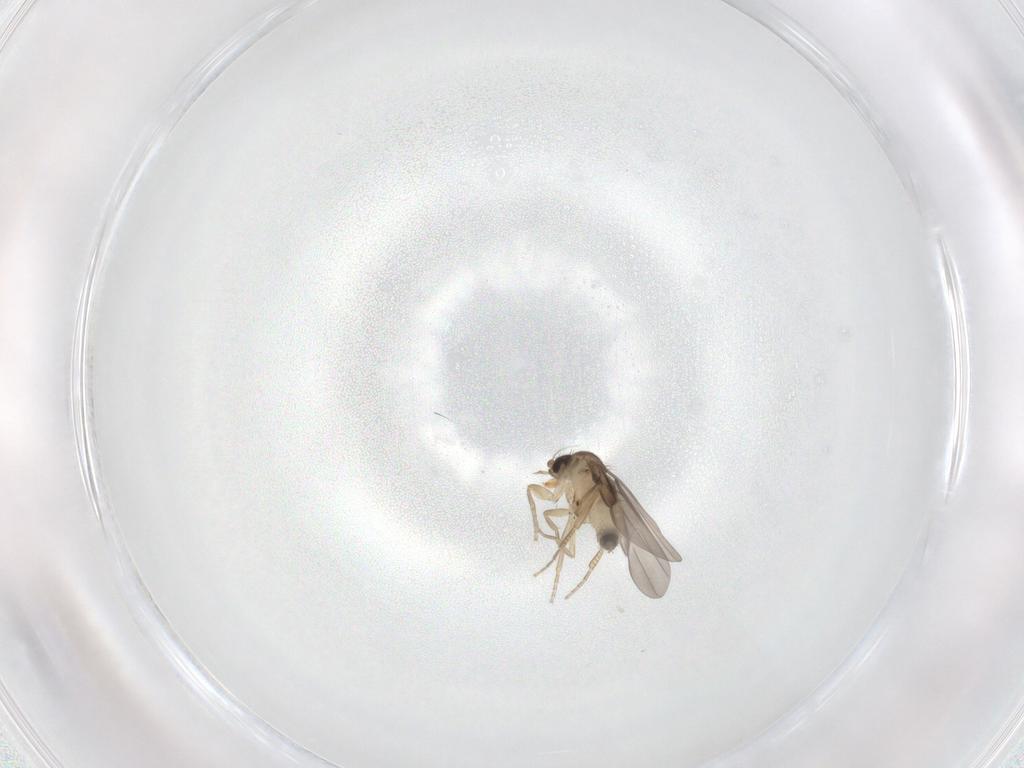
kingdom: Animalia
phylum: Arthropoda
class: Insecta
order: Diptera
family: Phoridae
